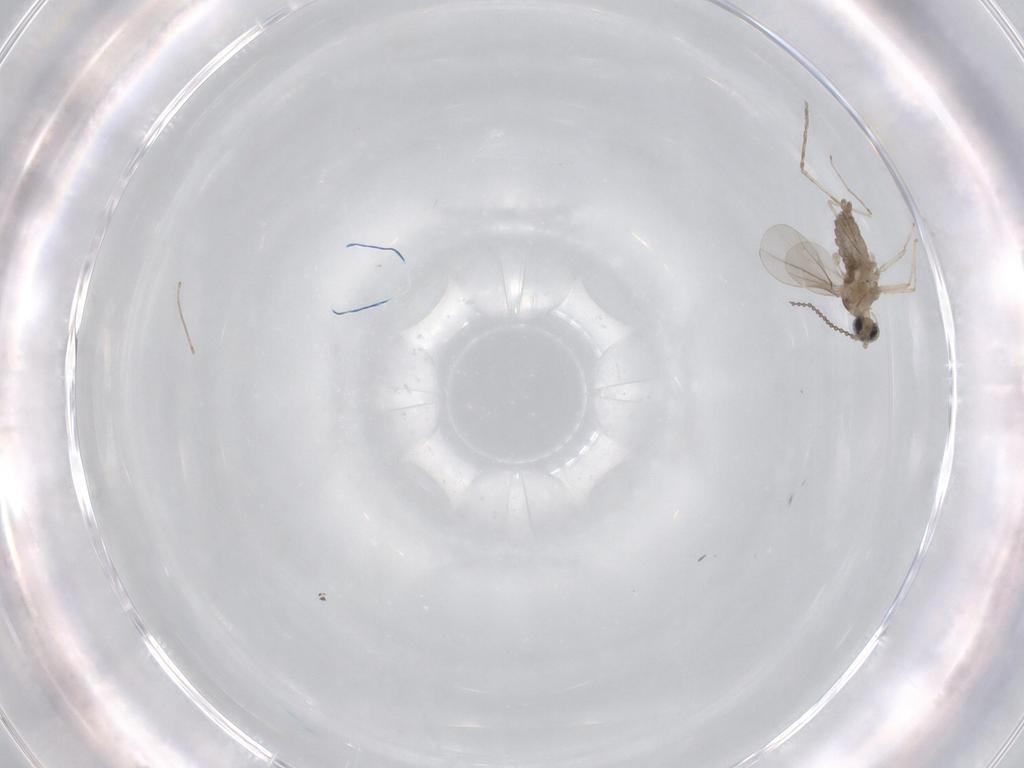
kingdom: Animalia
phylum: Arthropoda
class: Insecta
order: Diptera
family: Cecidomyiidae
